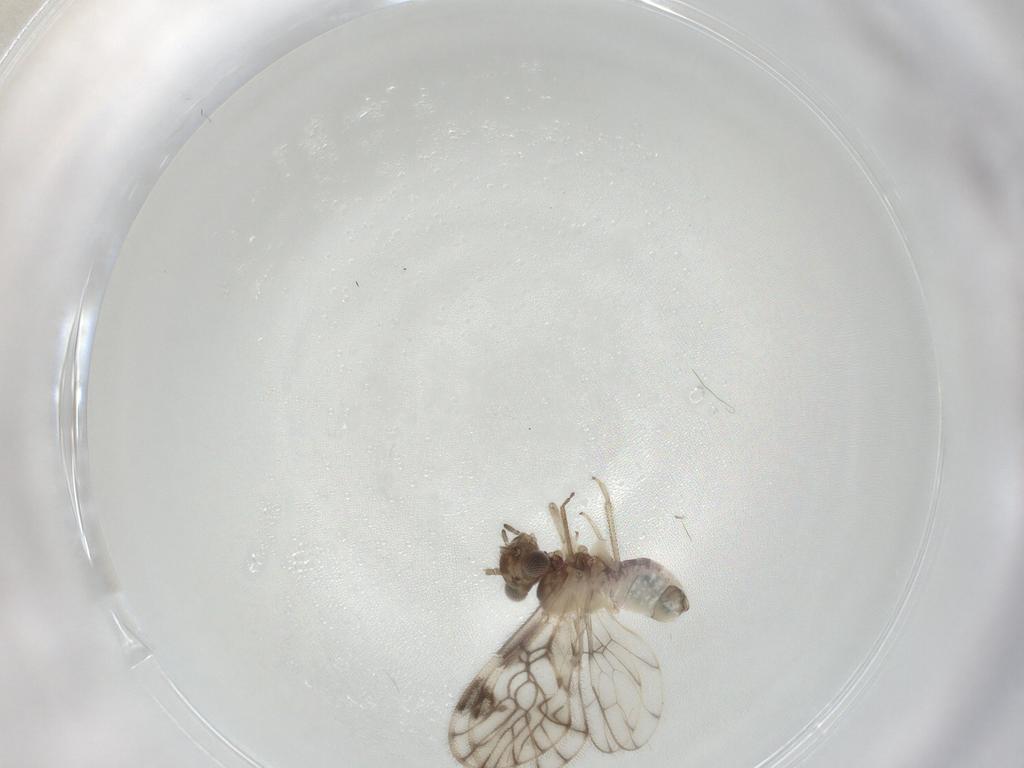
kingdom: Animalia
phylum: Arthropoda
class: Insecta
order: Psocodea
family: Caeciliusidae
